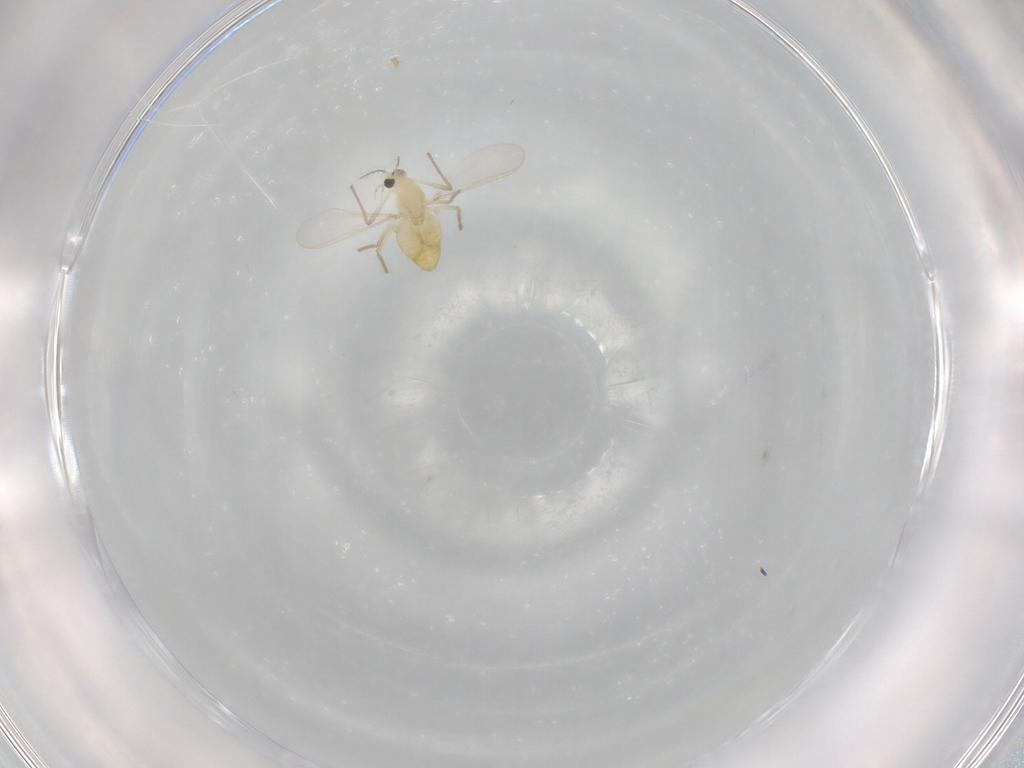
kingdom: Animalia
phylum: Arthropoda
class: Insecta
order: Diptera
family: Chironomidae
